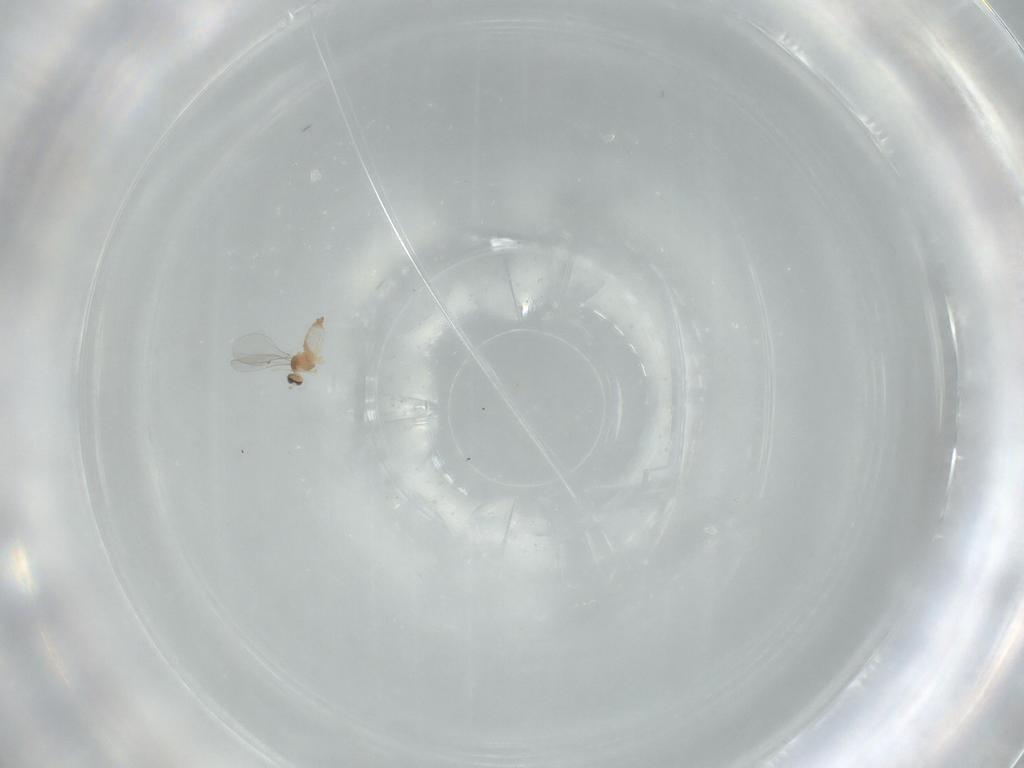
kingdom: Animalia
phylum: Arthropoda
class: Insecta
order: Diptera
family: Cecidomyiidae
